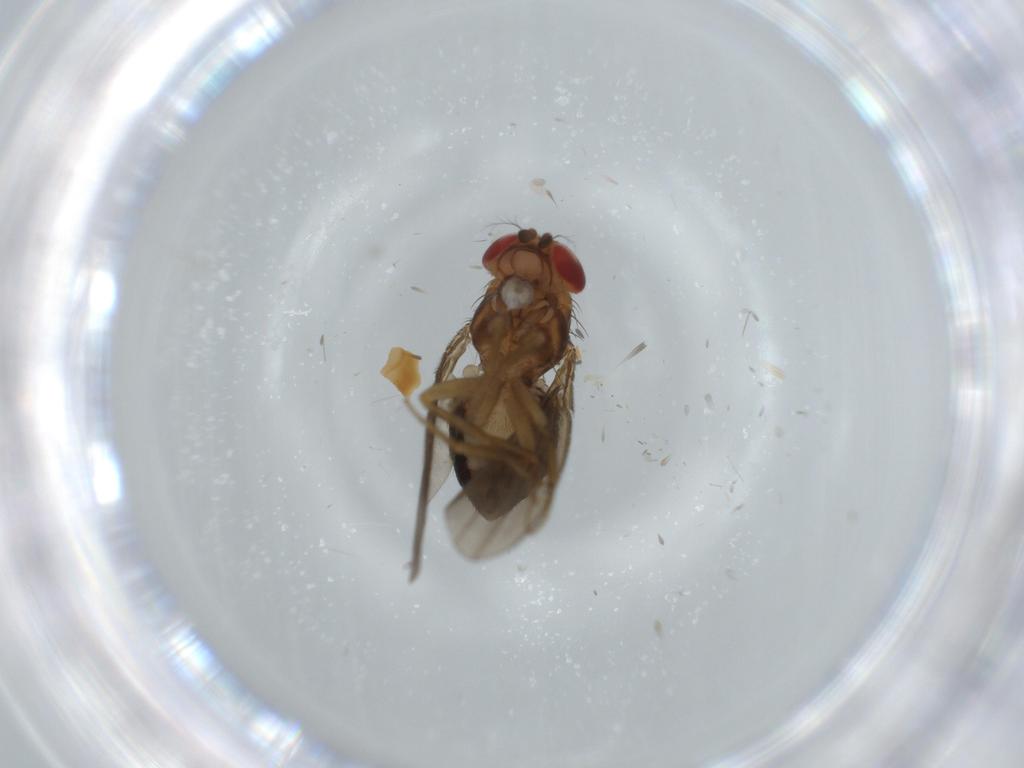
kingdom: Animalia
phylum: Arthropoda
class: Insecta
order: Diptera
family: Drosophilidae
